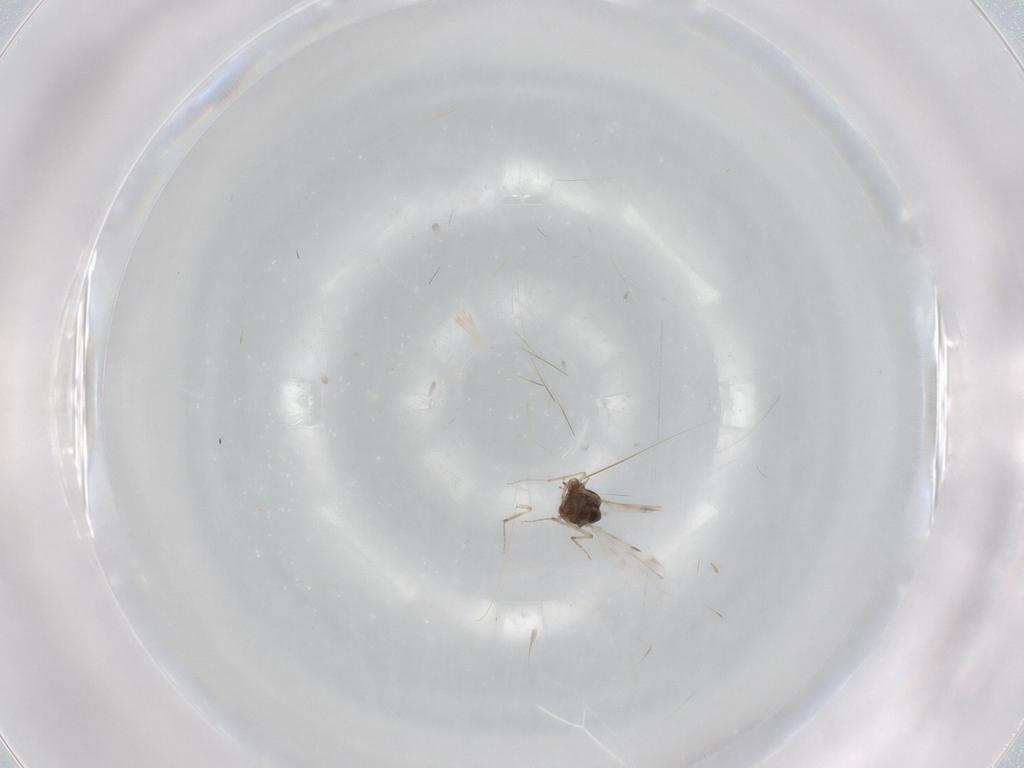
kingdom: Animalia
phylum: Arthropoda
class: Insecta
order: Diptera
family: Ceratopogonidae
